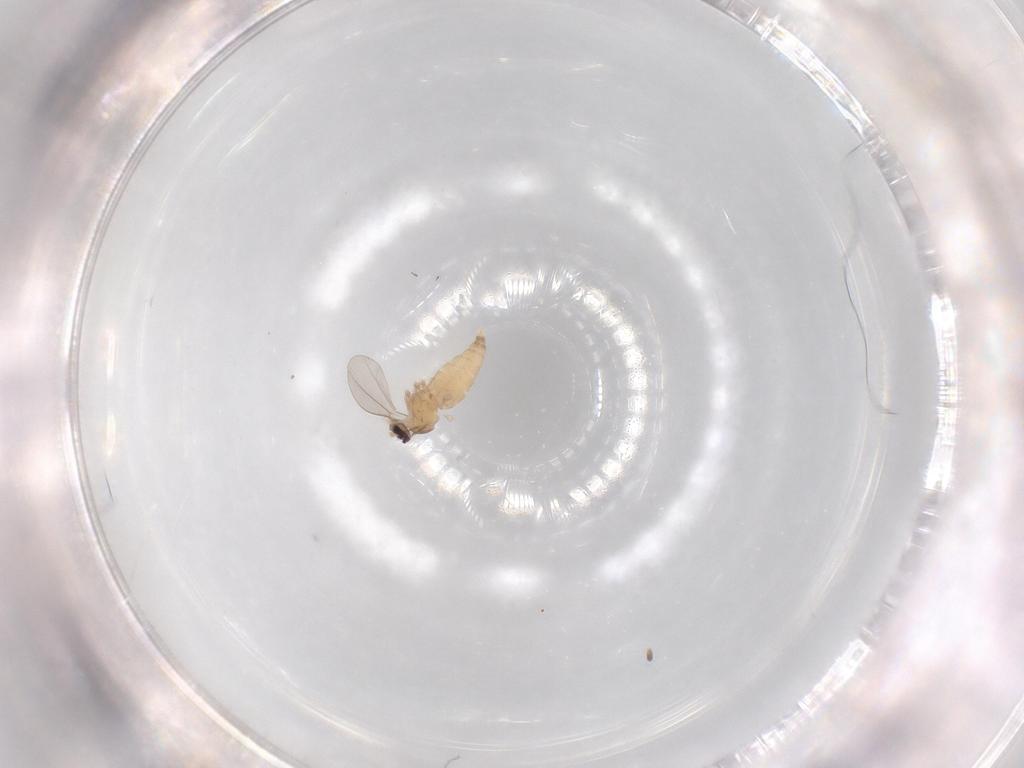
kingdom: Animalia
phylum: Arthropoda
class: Insecta
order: Diptera
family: Cecidomyiidae
